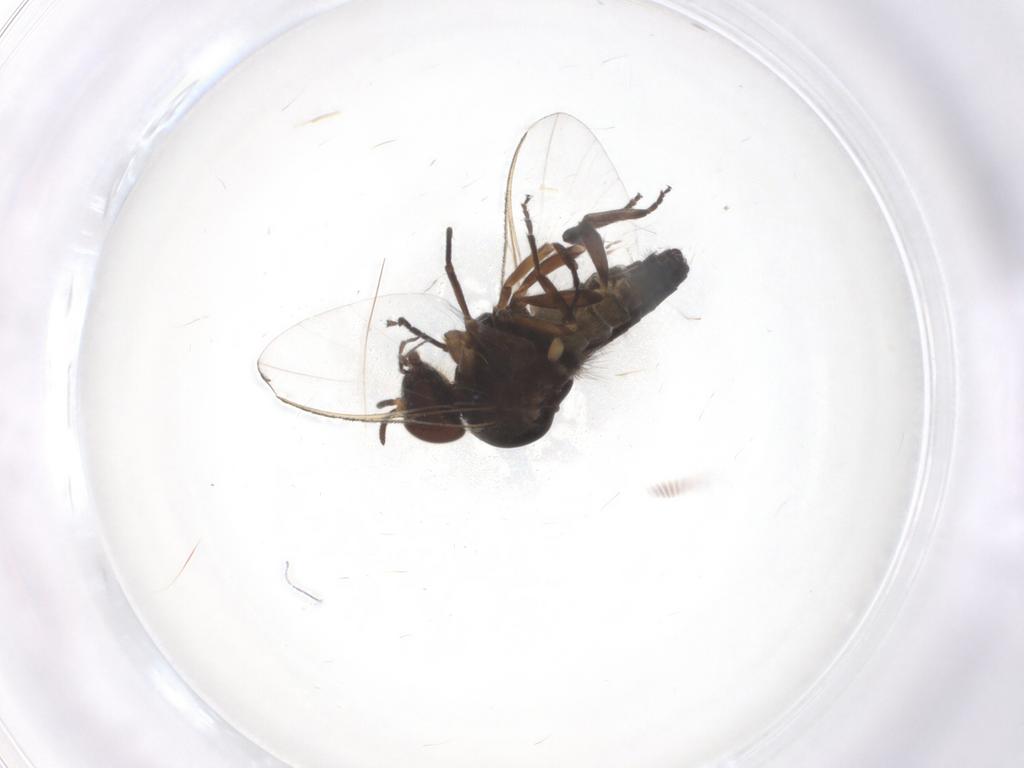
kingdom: Animalia
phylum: Arthropoda
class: Insecta
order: Diptera
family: Simuliidae
